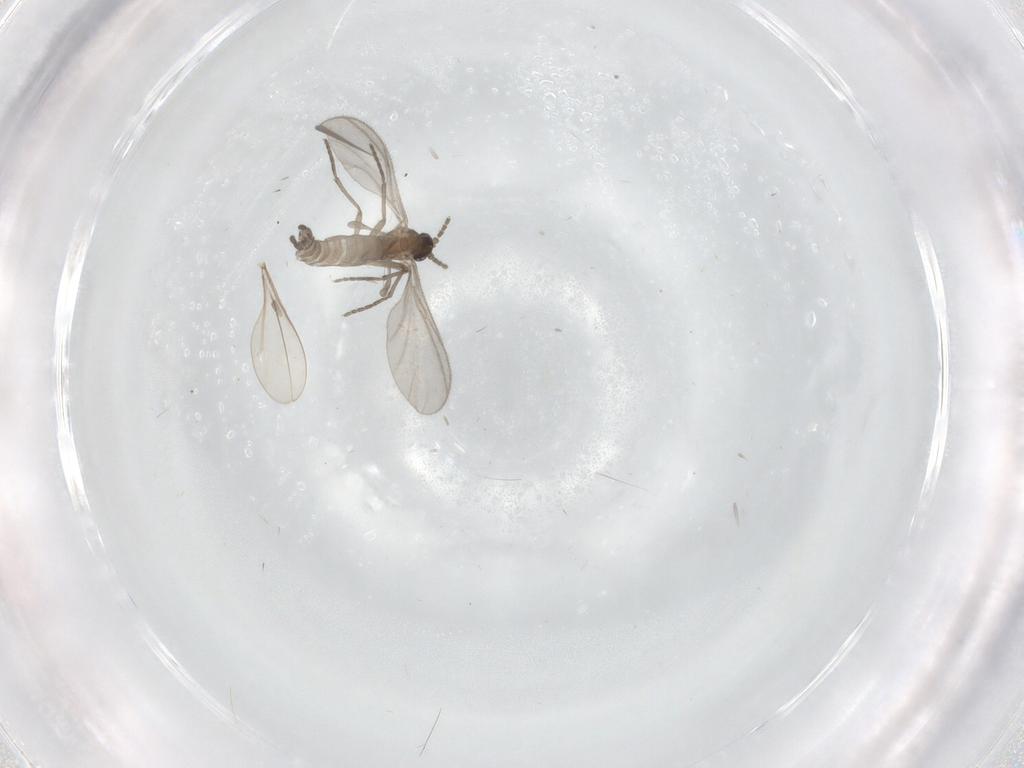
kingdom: Animalia
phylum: Arthropoda
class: Insecta
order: Diptera
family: Sciaridae
